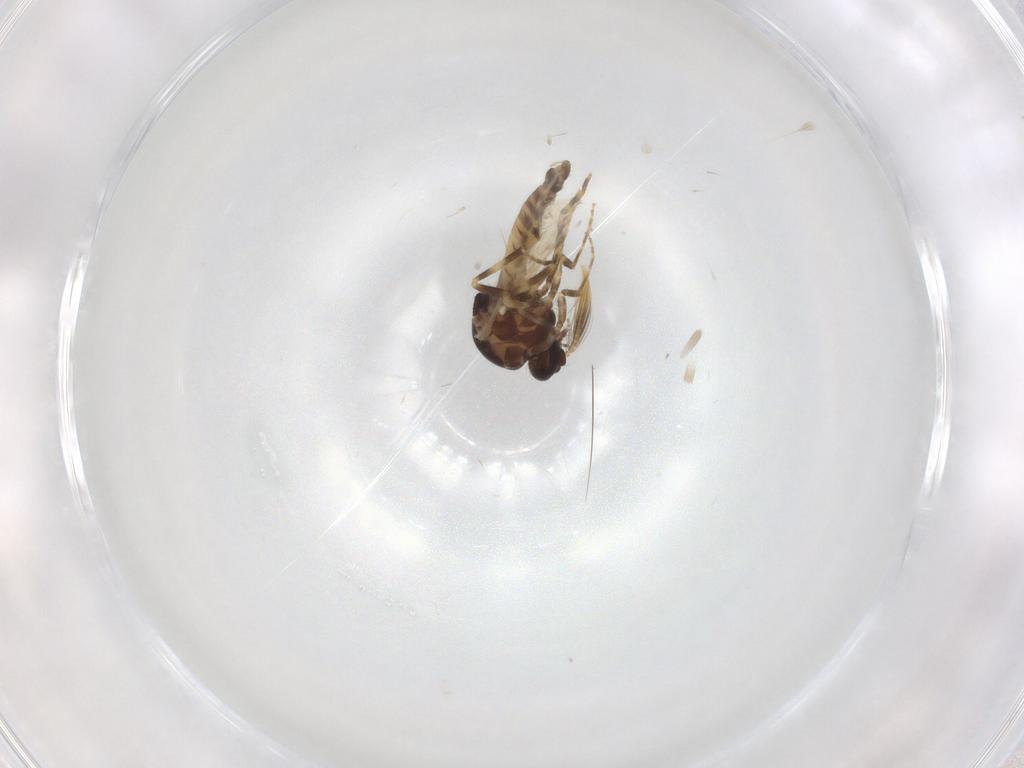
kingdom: Animalia
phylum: Arthropoda
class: Insecta
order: Diptera
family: Ceratopogonidae
